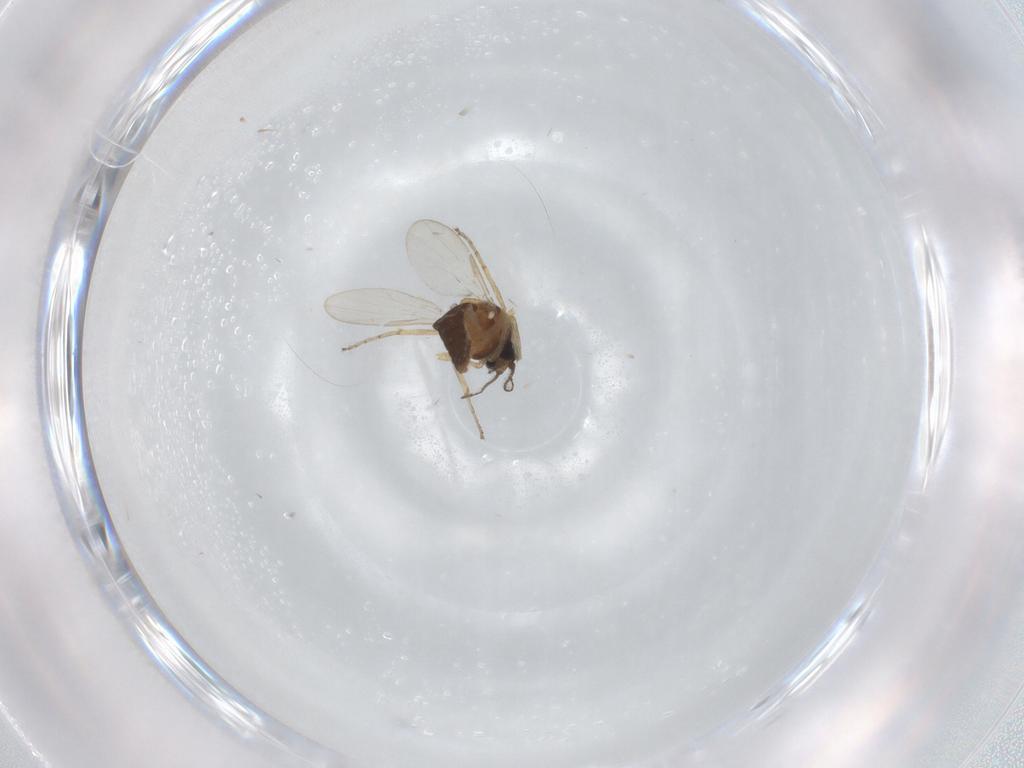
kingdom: Animalia
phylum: Arthropoda
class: Insecta
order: Diptera
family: Ceratopogonidae
